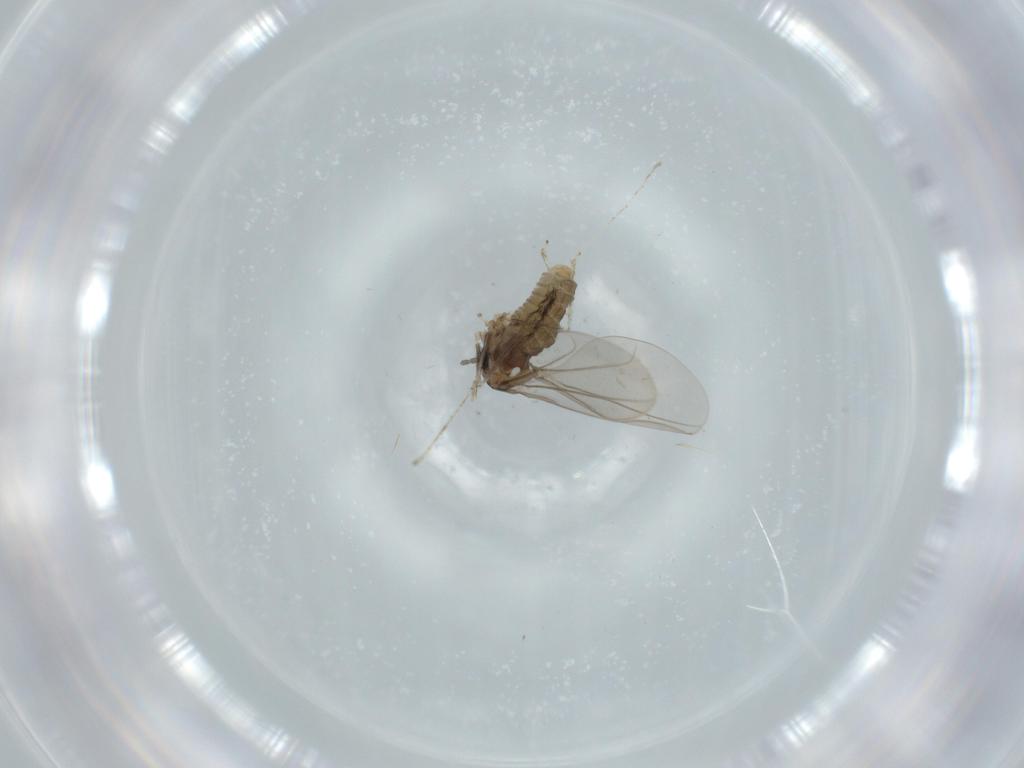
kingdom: Animalia
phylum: Arthropoda
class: Insecta
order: Diptera
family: Cecidomyiidae
